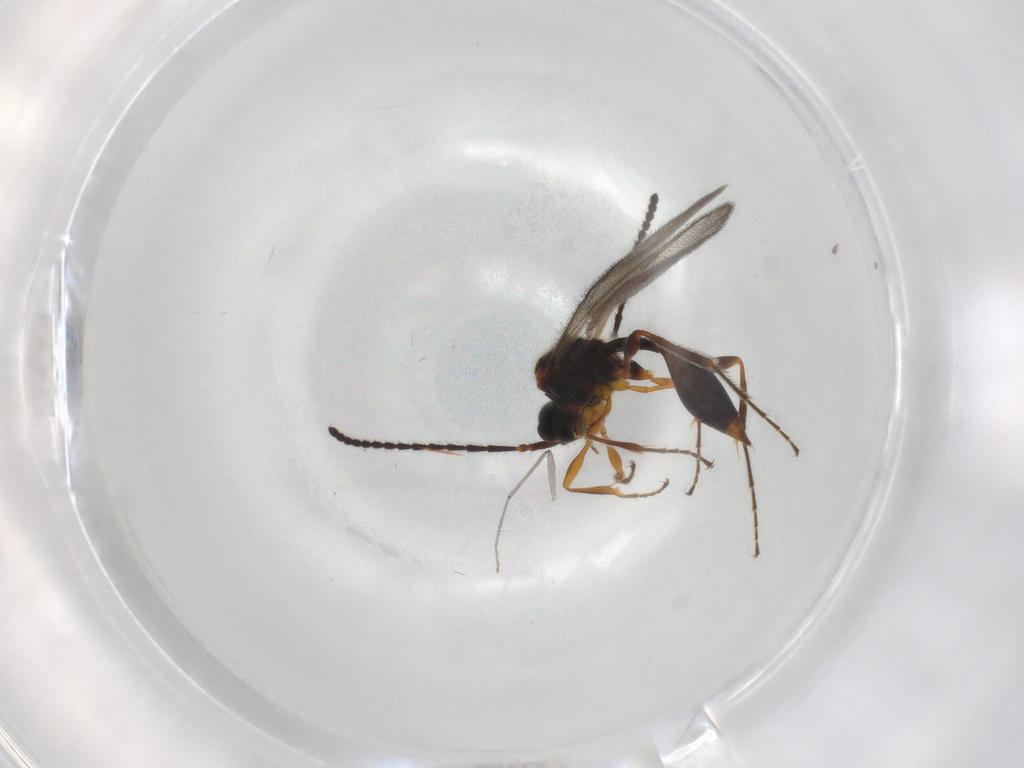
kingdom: Animalia
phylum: Arthropoda
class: Insecta
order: Hymenoptera
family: Diapriidae
